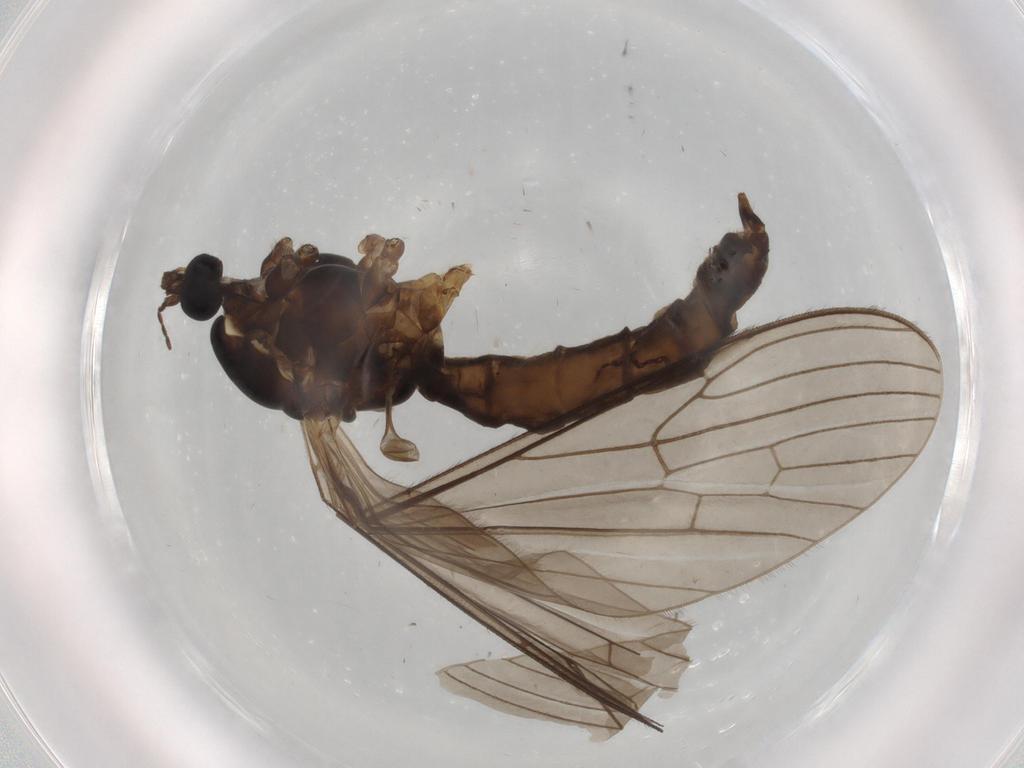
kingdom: Animalia
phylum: Arthropoda
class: Insecta
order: Diptera
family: Limoniidae
